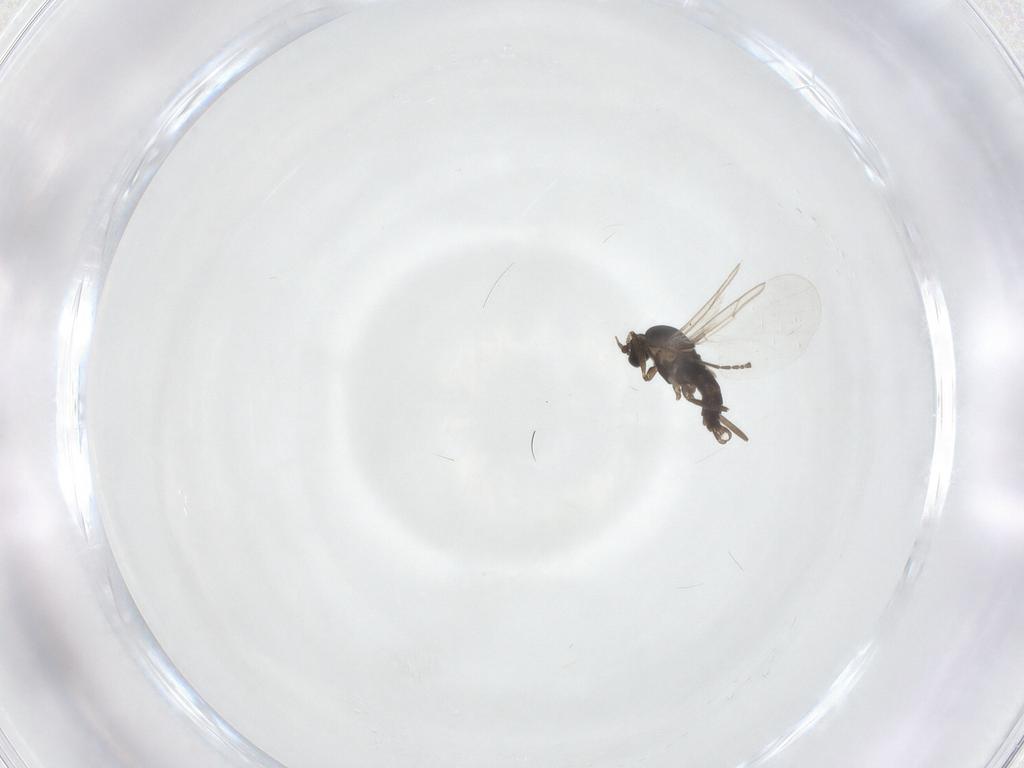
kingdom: Animalia
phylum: Arthropoda
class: Insecta
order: Diptera
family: Cecidomyiidae
